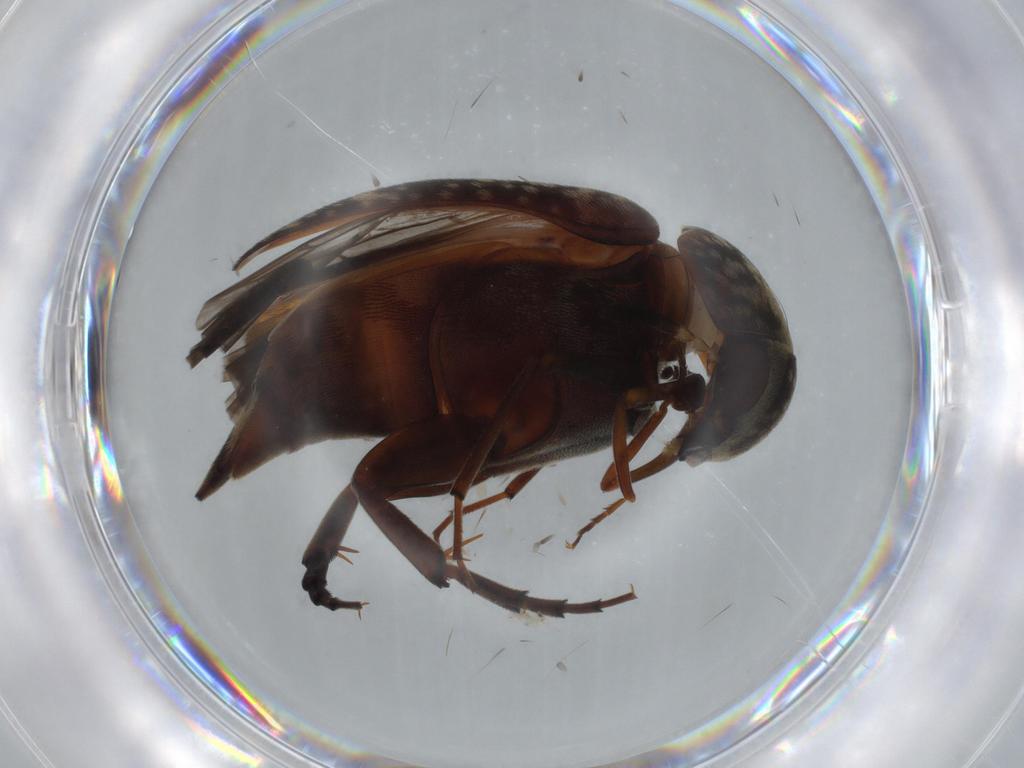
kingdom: Animalia
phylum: Arthropoda
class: Insecta
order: Coleoptera
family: Erotylidae
